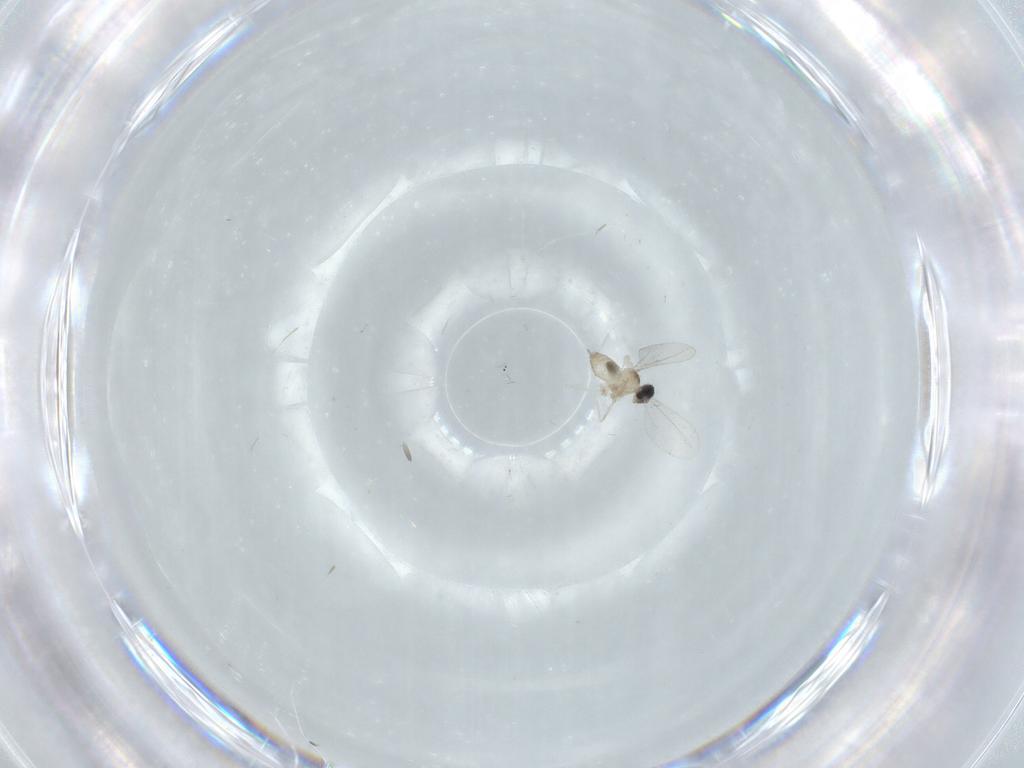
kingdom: Animalia
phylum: Arthropoda
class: Insecta
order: Diptera
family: Cecidomyiidae
